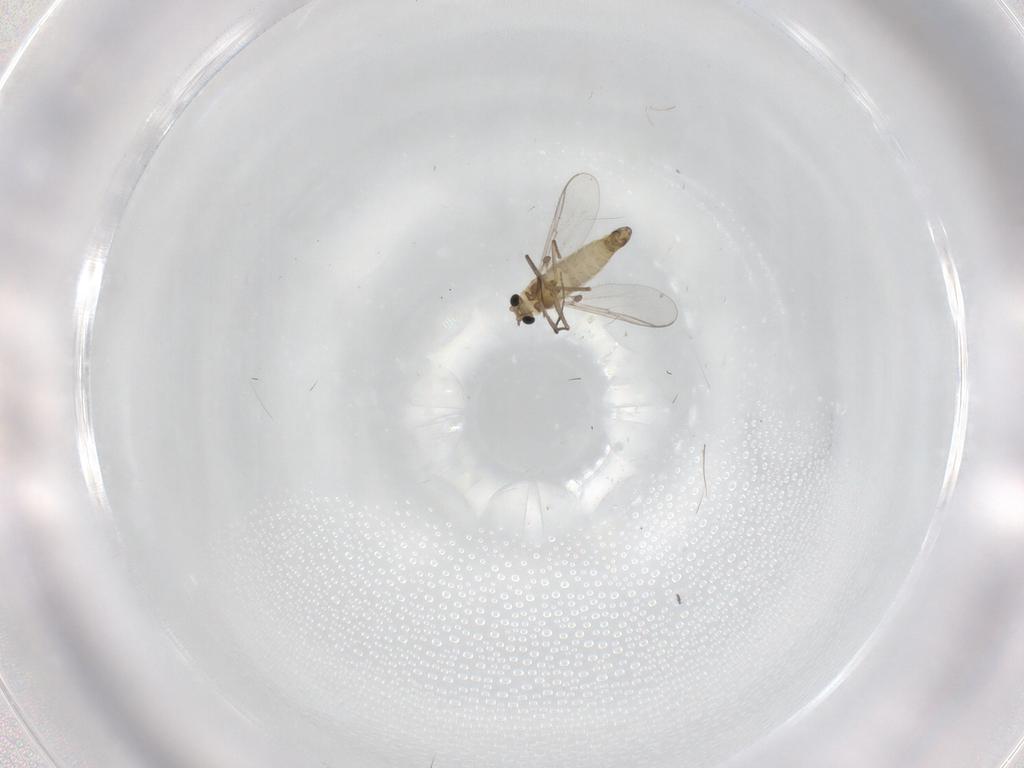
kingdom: Animalia
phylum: Arthropoda
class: Insecta
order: Diptera
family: Chironomidae
